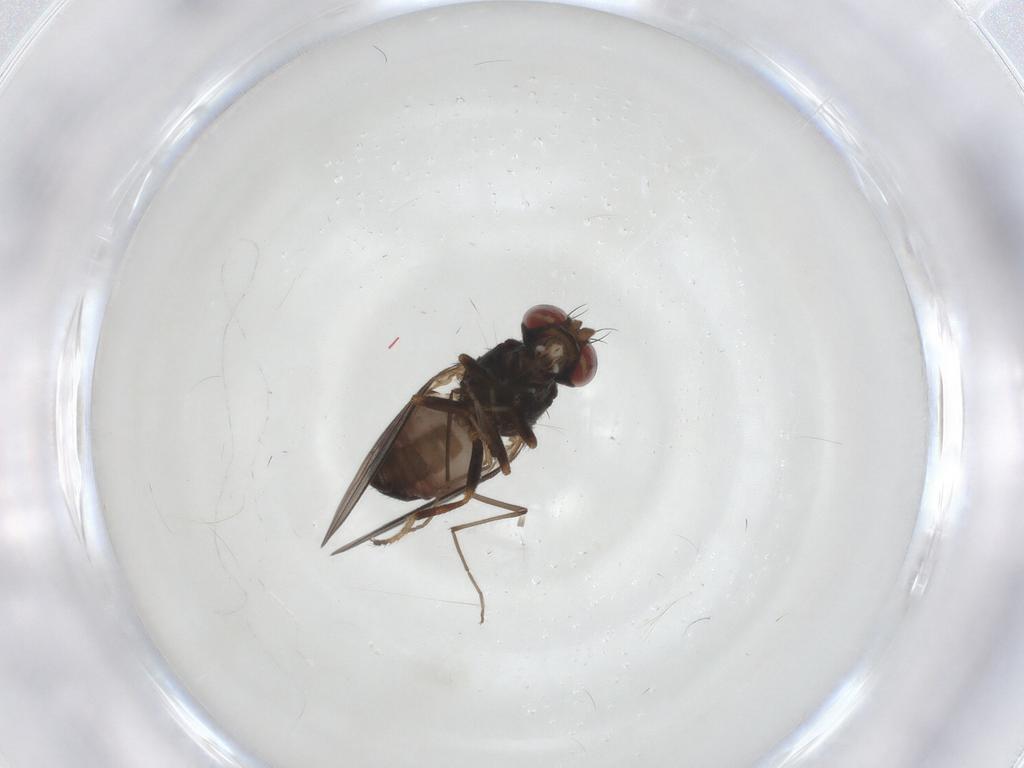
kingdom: Animalia
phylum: Arthropoda
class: Insecta
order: Diptera
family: Aulacigastridae
